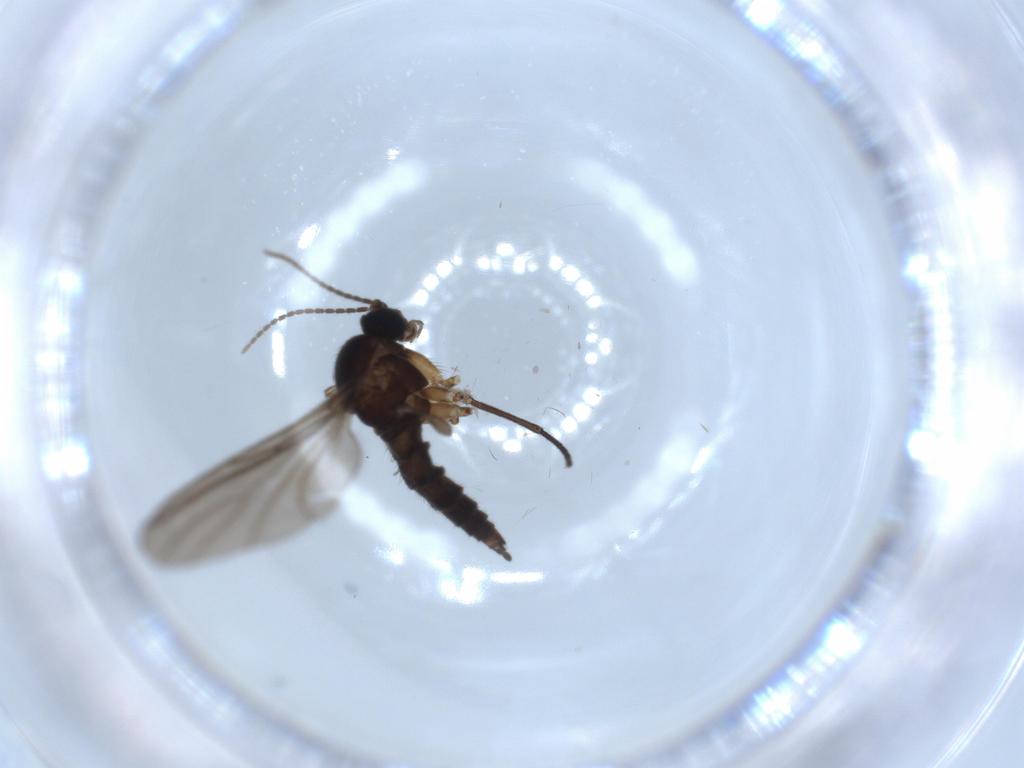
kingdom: Animalia
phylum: Arthropoda
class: Insecta
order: Diptera
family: Sciaridae
